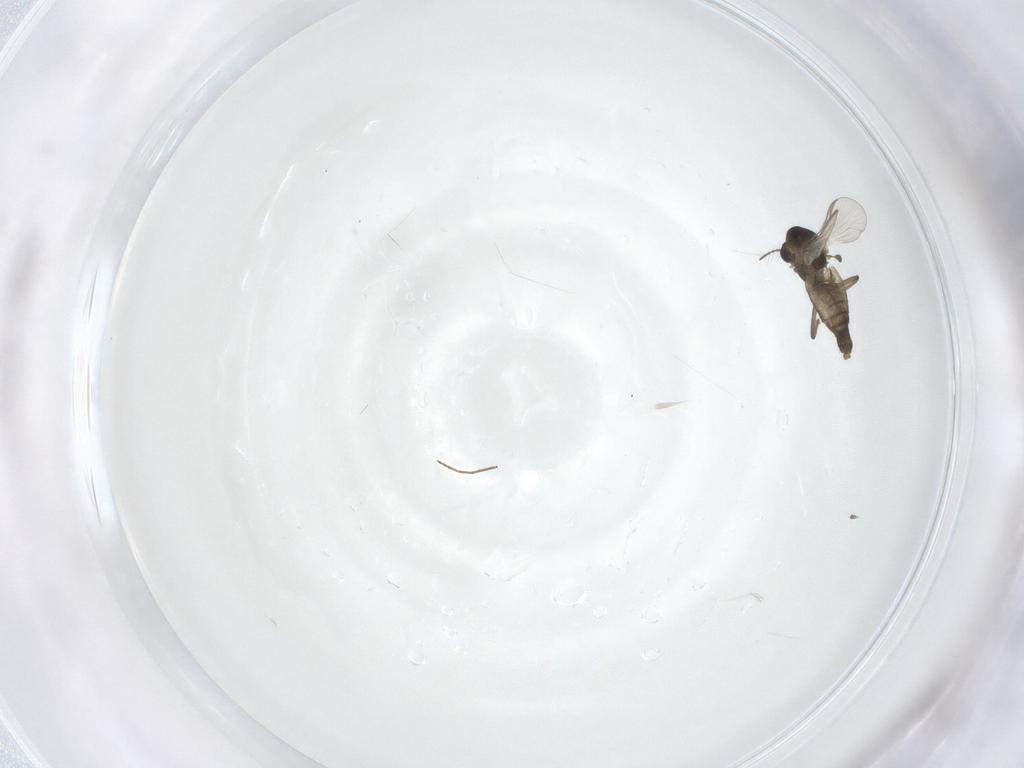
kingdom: Animalia
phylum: Arthropoda
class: Insecta
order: Diptera
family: Chironomidae
